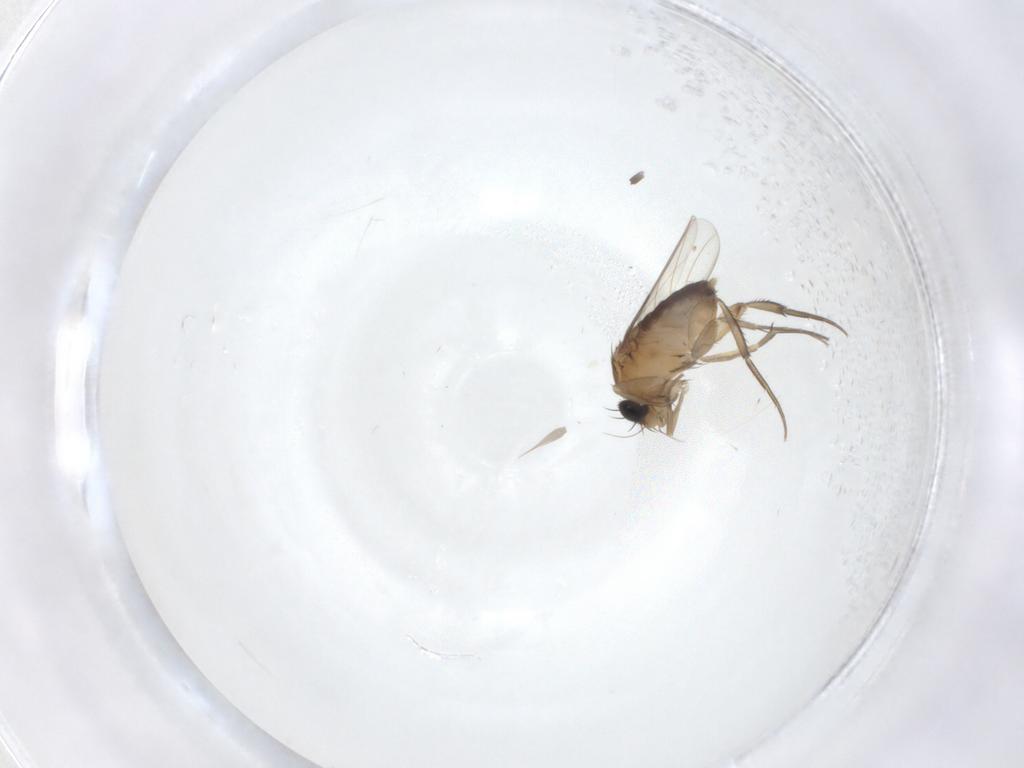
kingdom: Animalia
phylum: Arthropoda
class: Insecta
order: Diptera
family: Phoridae
